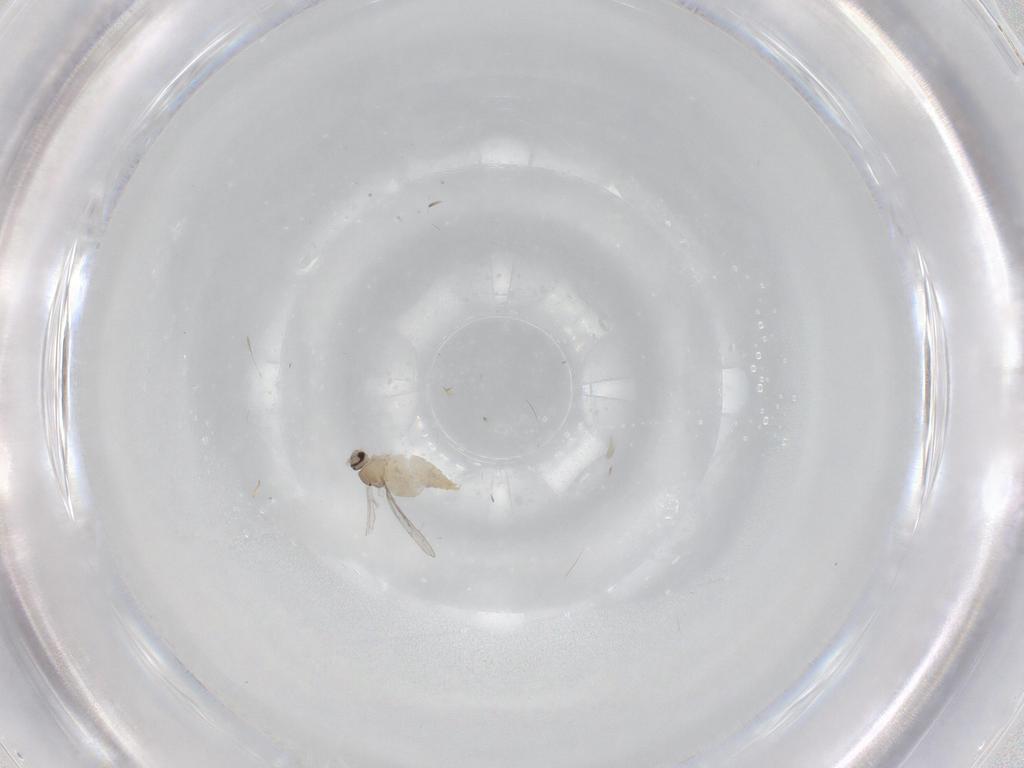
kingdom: Animalia
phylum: Arthropoda
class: Insecta
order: Diptera
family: Cecidomyiidae
